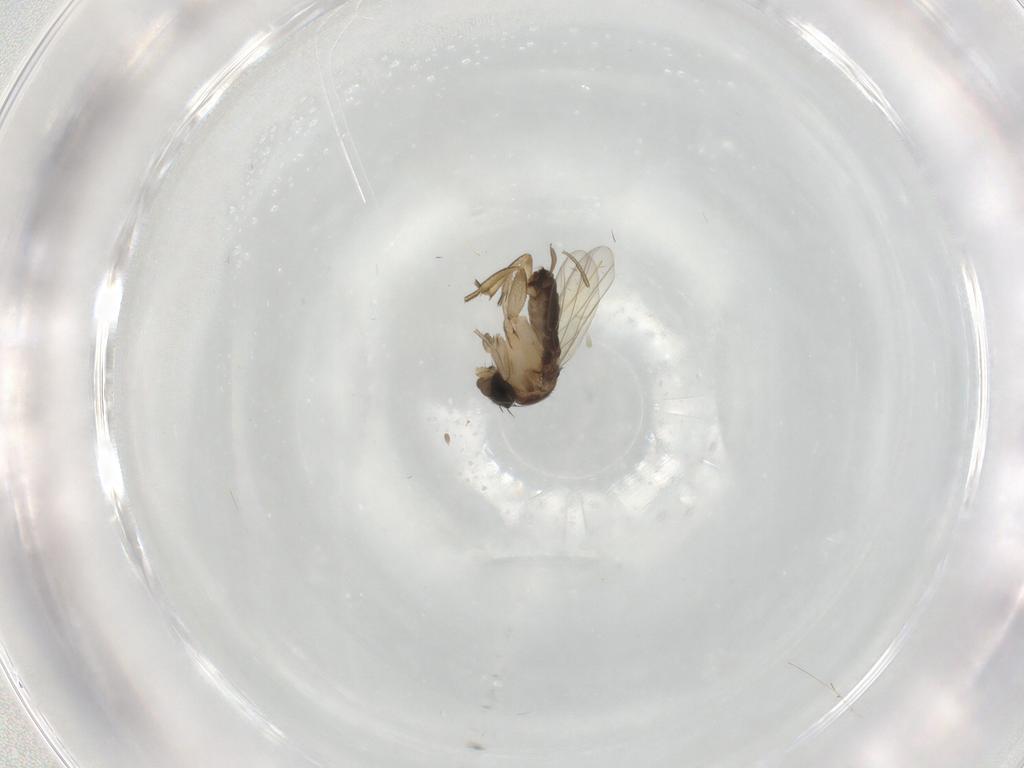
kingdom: Animalia
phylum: Arthropoda
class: Insecta
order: Diptera
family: Phoridae
